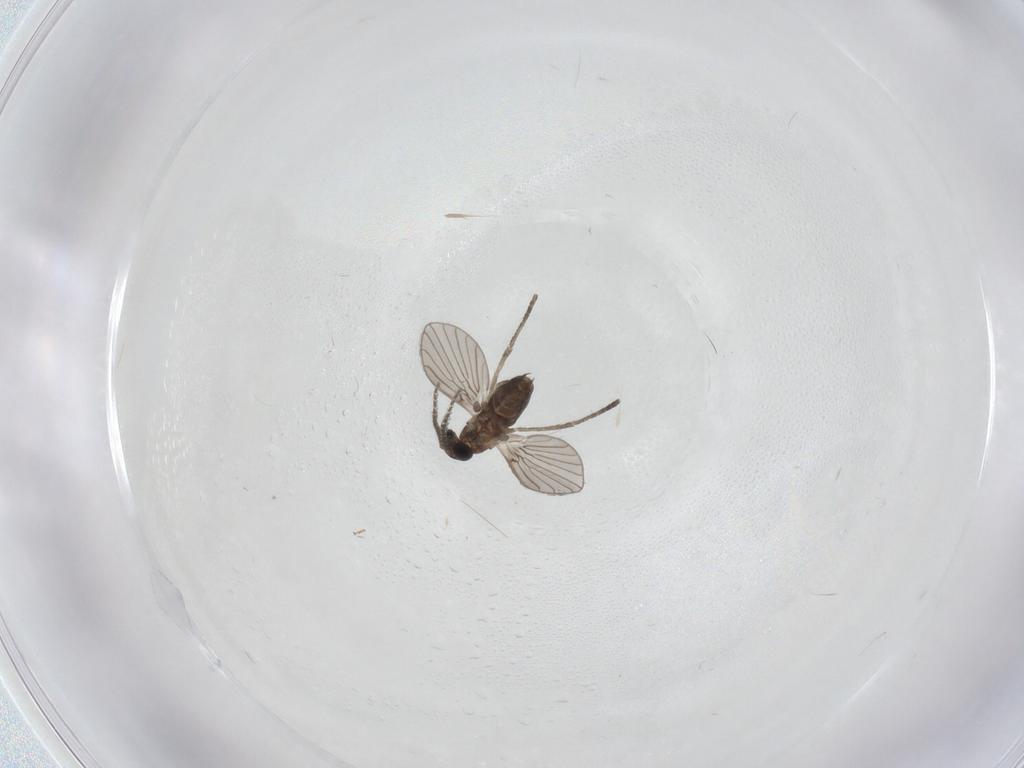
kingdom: Animalia
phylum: Arthropoda
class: Insecta
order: Diptera
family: Psychodidae
